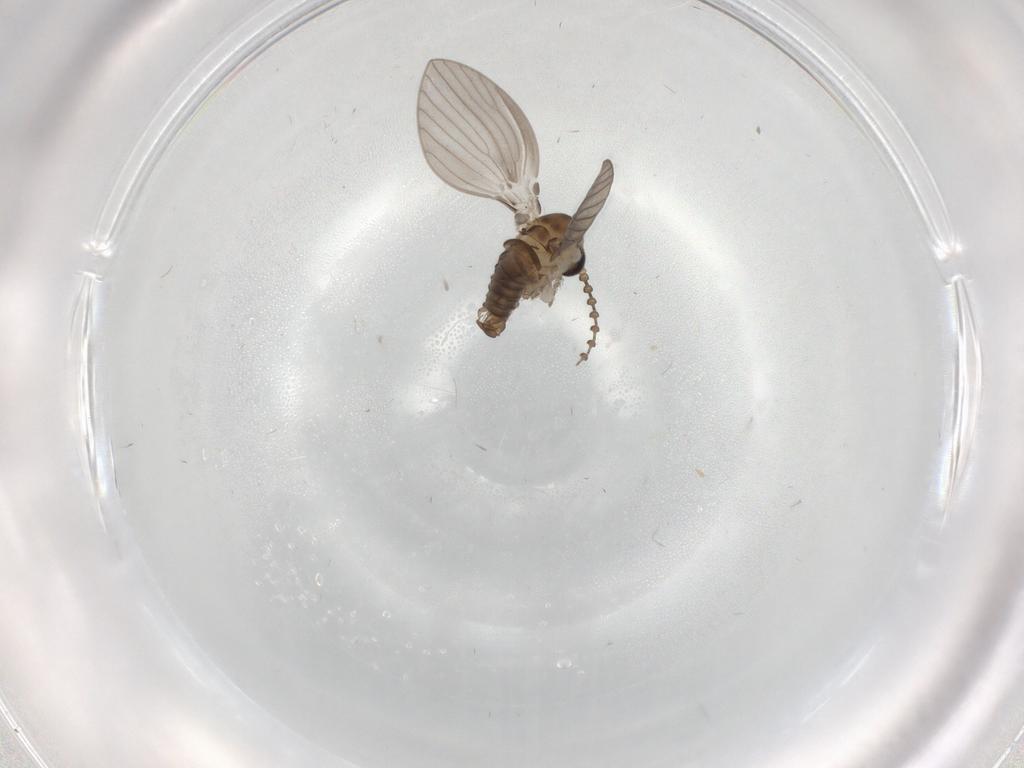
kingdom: Animalia
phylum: Arthropoda
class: Insecta
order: Diptera
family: Psychodidae
